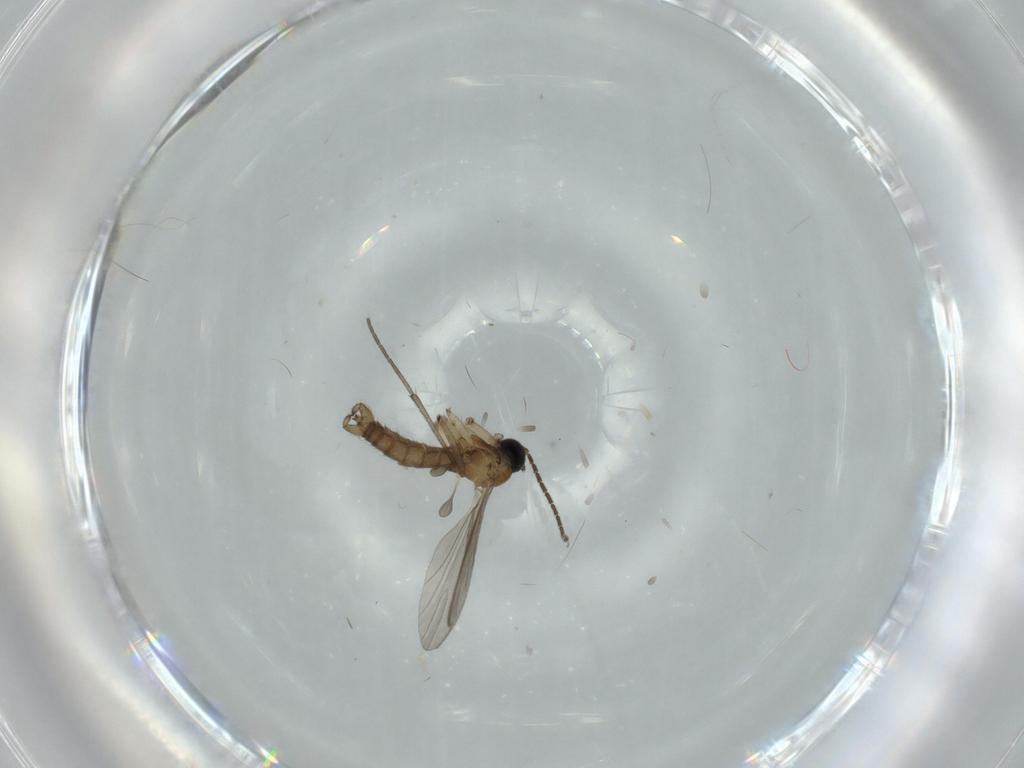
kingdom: Animalia
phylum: Arthropoda
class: Insecta
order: Diptera
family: Sciaridae
